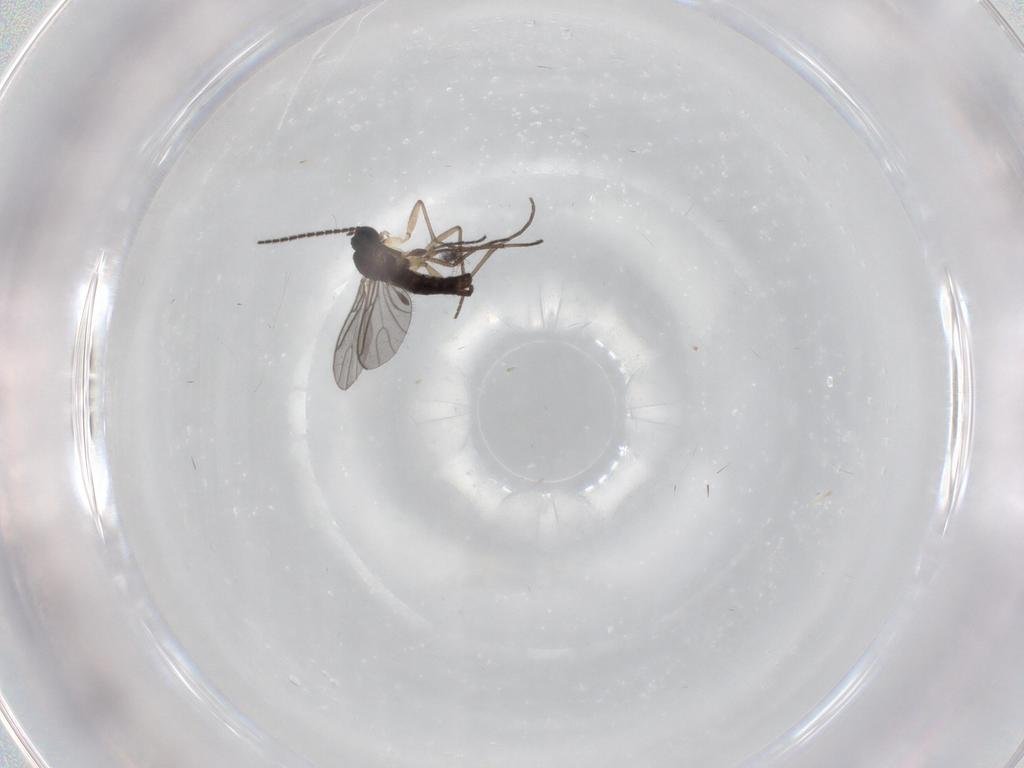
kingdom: Animalia
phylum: Arthropoda
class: Insecta
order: Diptera
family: Sciaridae
